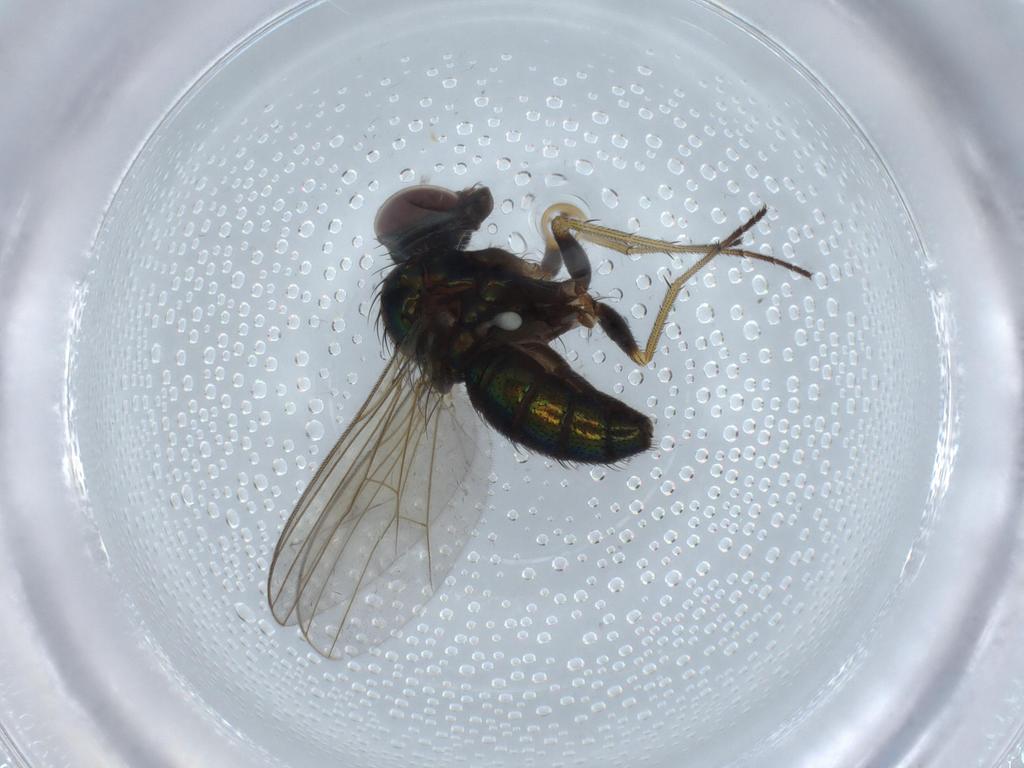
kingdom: Animalia
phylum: Arthropoda
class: Insecta
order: Diptera
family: Dolichopodidae
